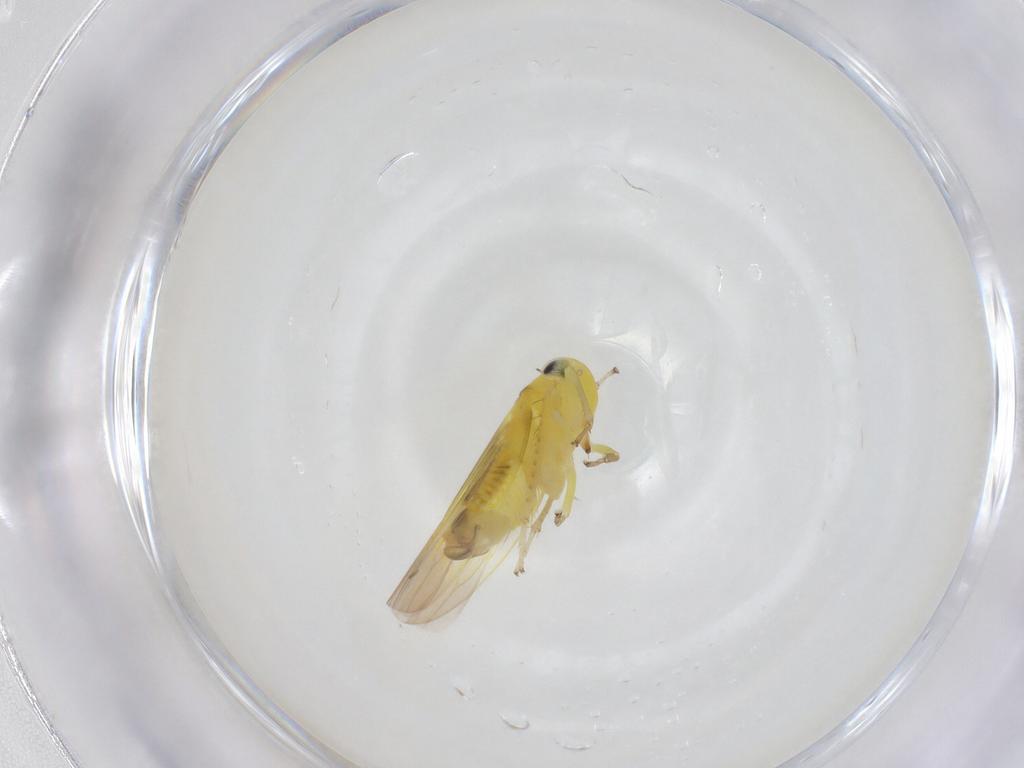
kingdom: Animalia
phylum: Arthropoda
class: Insecta
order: Hemiptera
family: Cicadellidae
